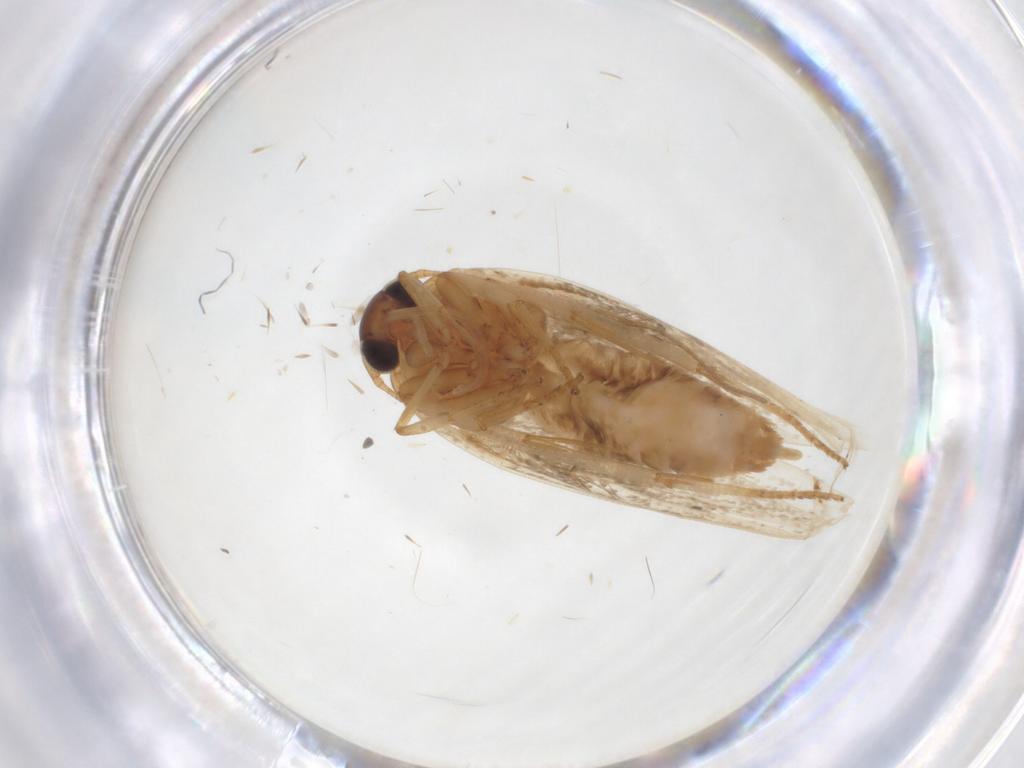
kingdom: Animalia
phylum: Arthropoda
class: Insecta
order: Lepidoptera
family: Blastobasidae
